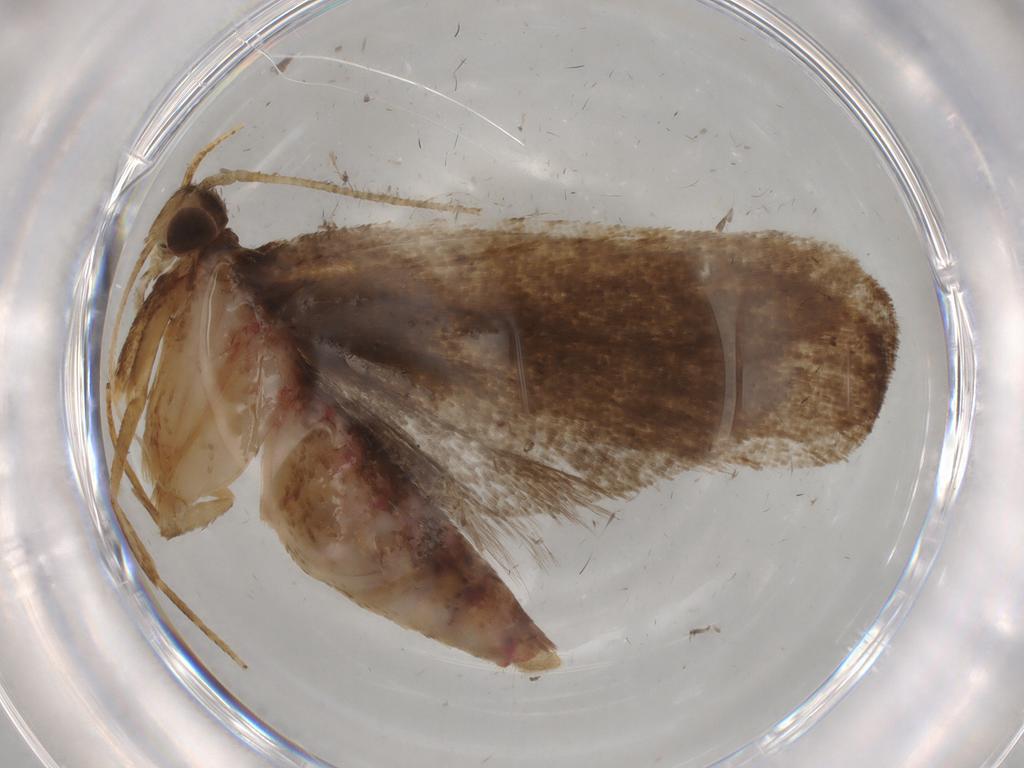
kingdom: Animalia
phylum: Arthropoda
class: Insecta
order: Lepidoptera
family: Autostichidae
